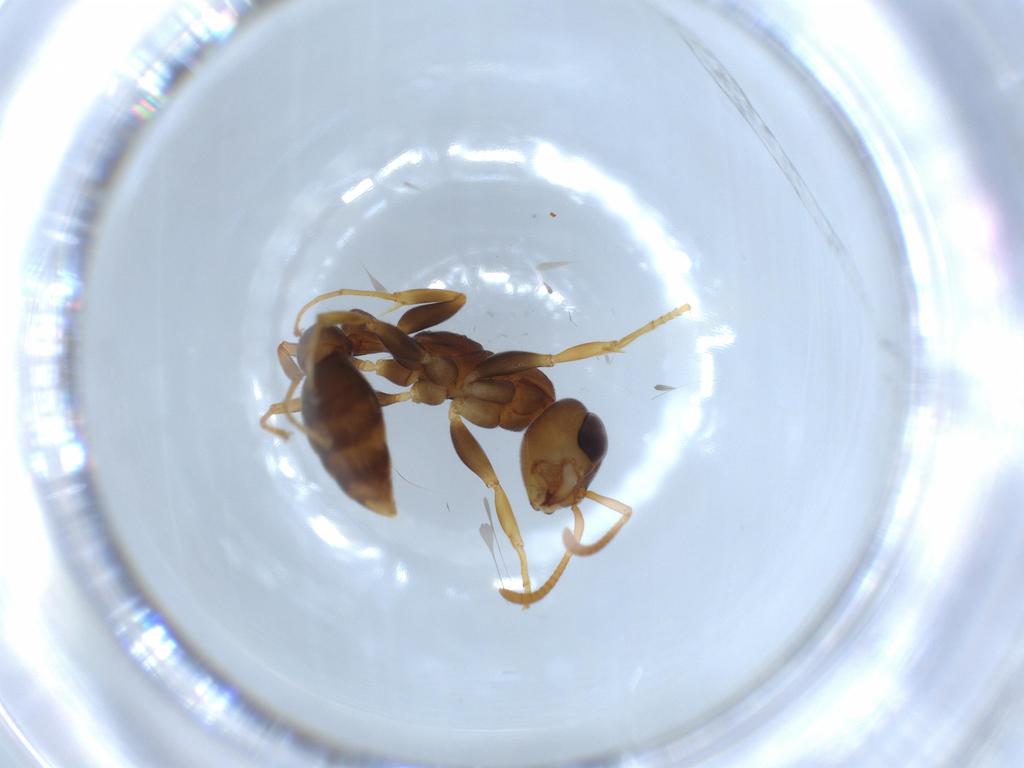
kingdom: Animalia
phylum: Arthropoda
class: Insecta
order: Hymenoptera
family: Formicidae
